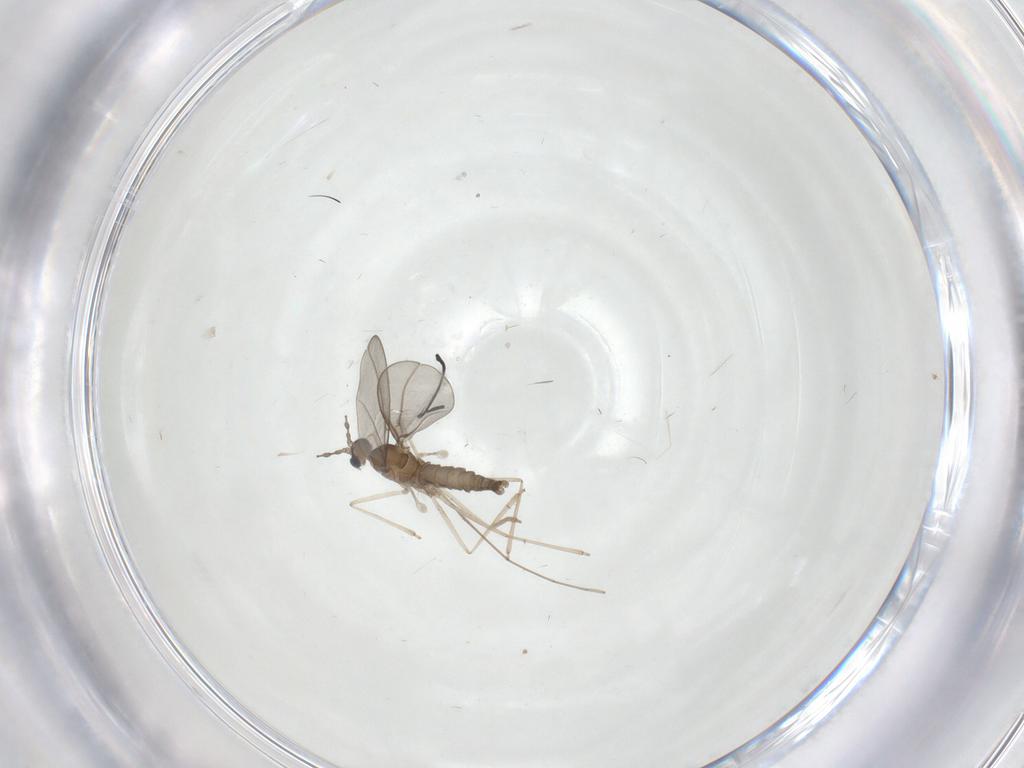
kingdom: Animalia
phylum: Arthropoda
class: Insecta
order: Diptera
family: Cecidomyiidae
